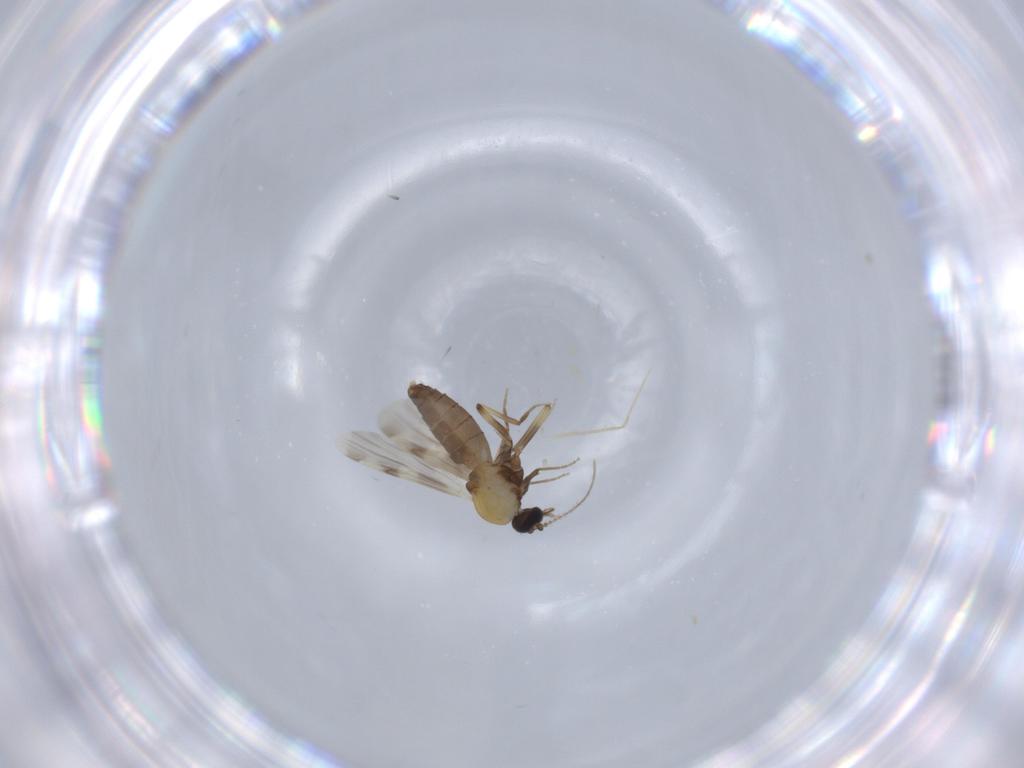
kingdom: Animalia
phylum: Arthropoda
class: Insecta
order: Diptera
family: Ceratopogonidae
